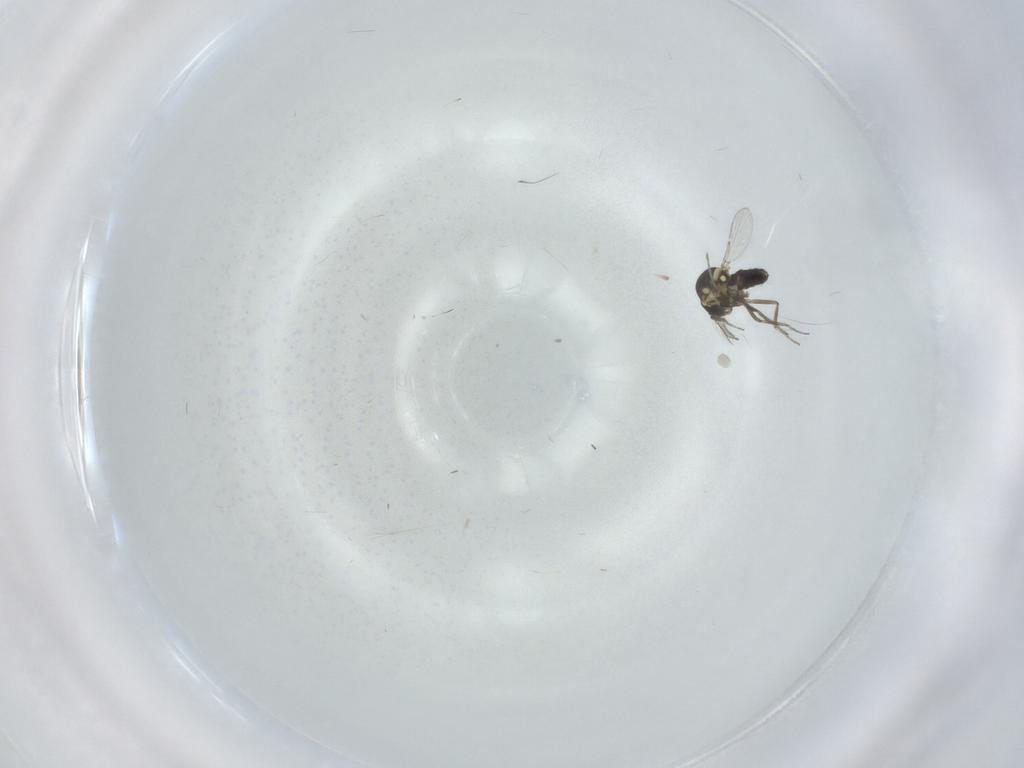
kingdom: Animalia
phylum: Arthropoda
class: Insecta
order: Diptera
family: Ceratopogonidae
